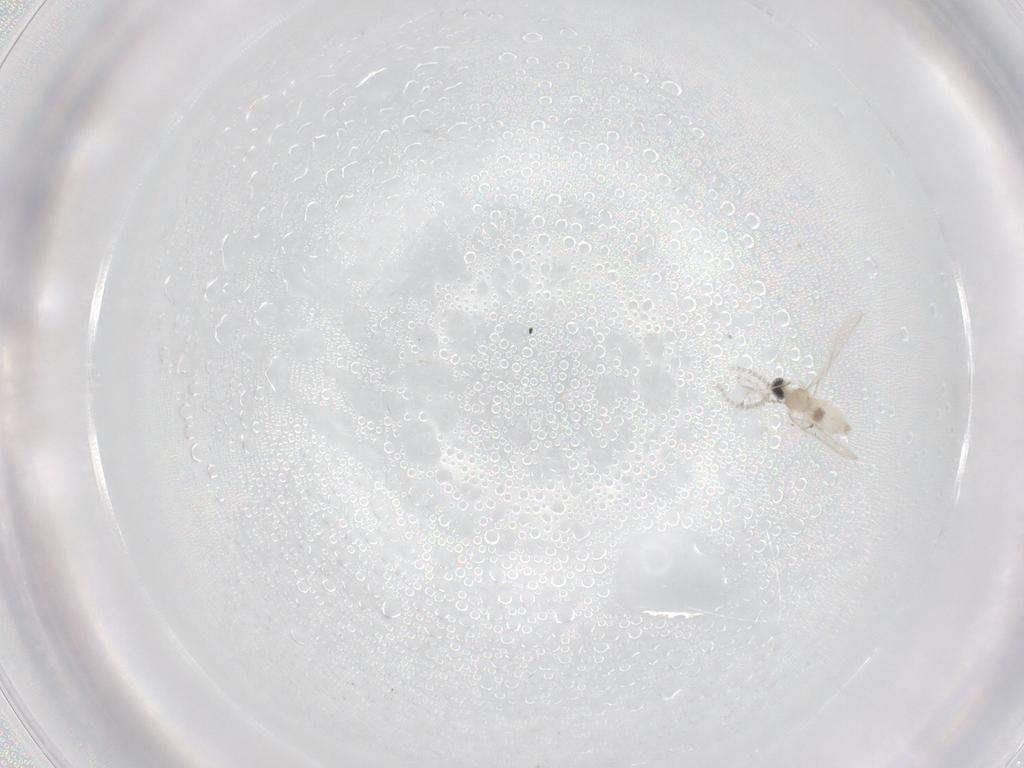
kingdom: Animalia
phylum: Arthropoda
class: Insecta
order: Diptera
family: Cecidomyiidae
